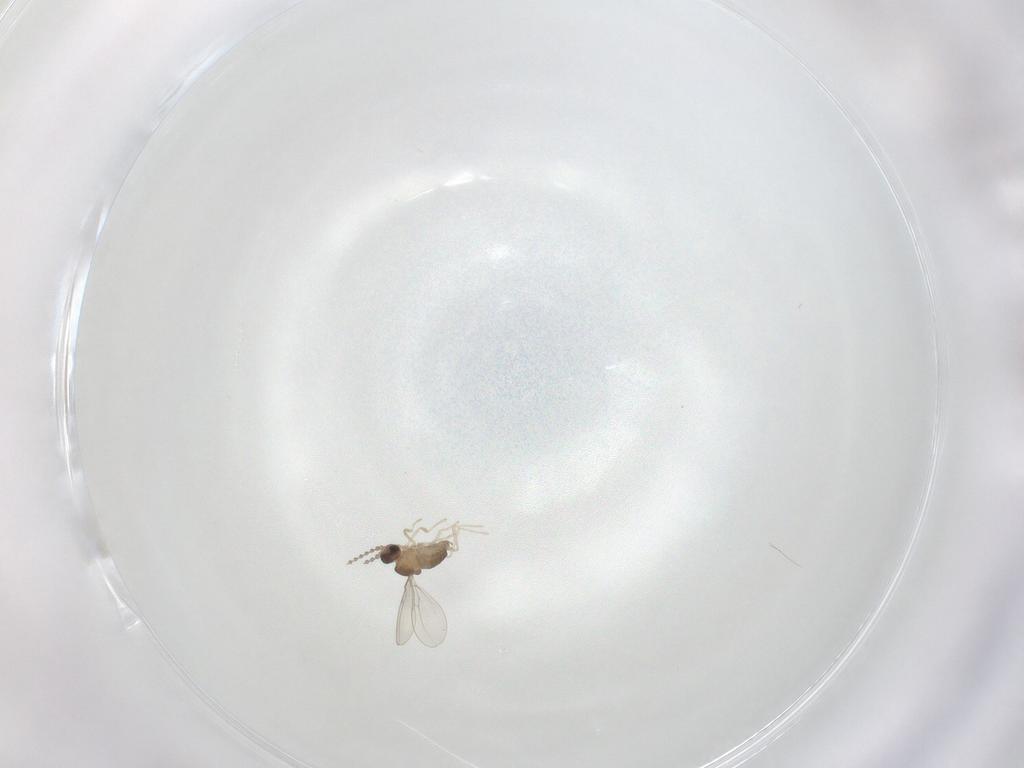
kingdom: Animalia
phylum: Arthropoda
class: Insecta
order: Diptera
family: Cecidomyiidae
